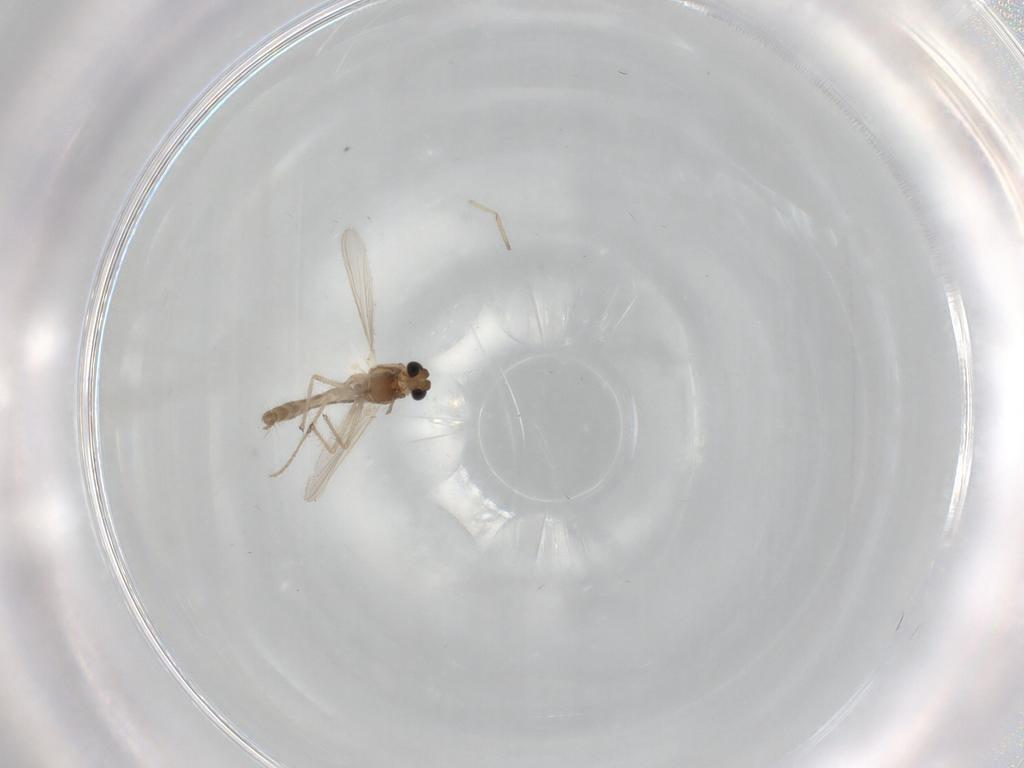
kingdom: Animalia
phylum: Arthropoda
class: Insecta
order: Diptera
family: Chironomidae
